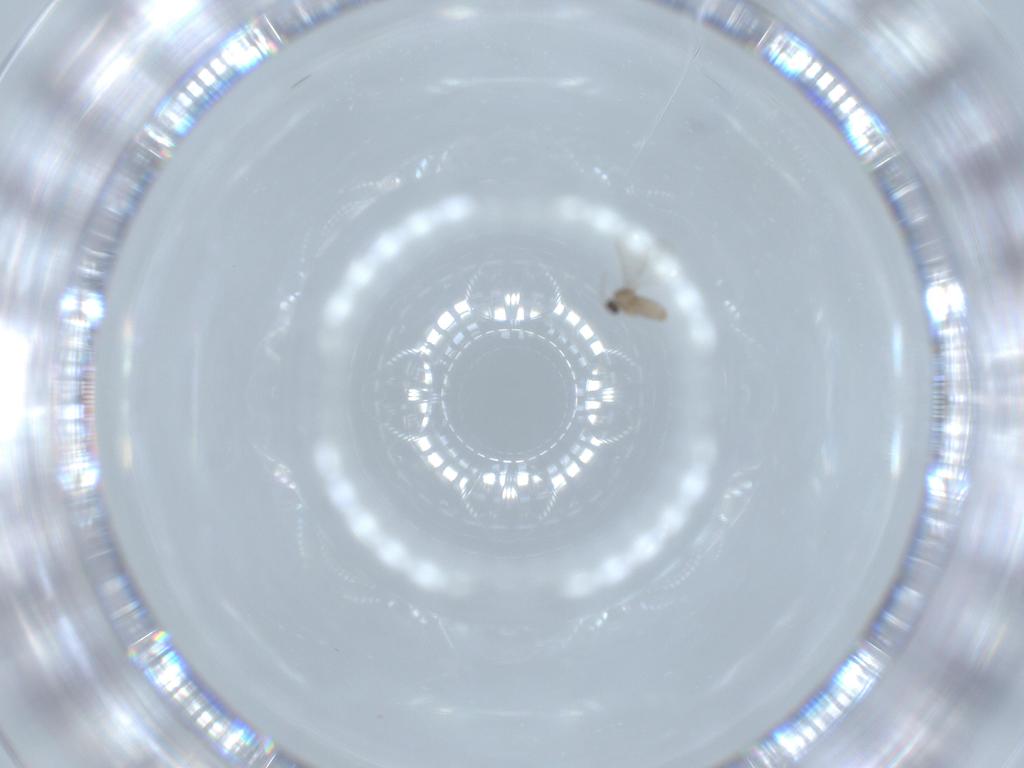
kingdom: Animalia
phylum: Arthropoda
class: Insecta
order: Diptera
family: Cecidomyiidae
